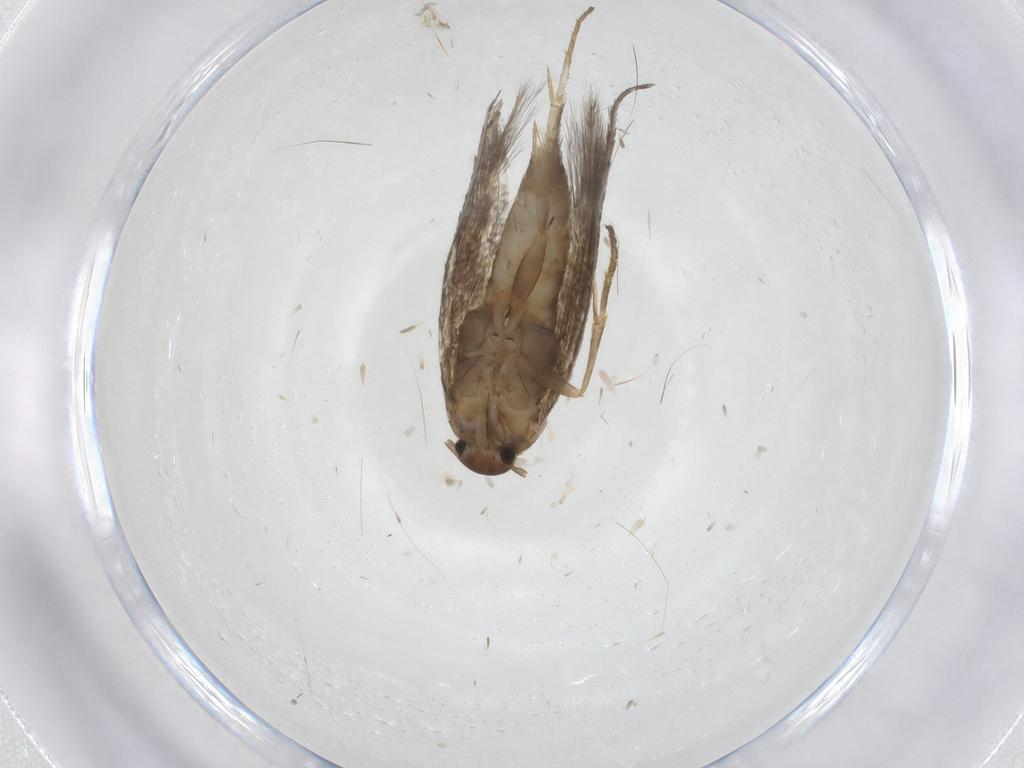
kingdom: Animalia
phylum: Arthropoda
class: Insecta
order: Lepidoptera
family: Elachistidae
